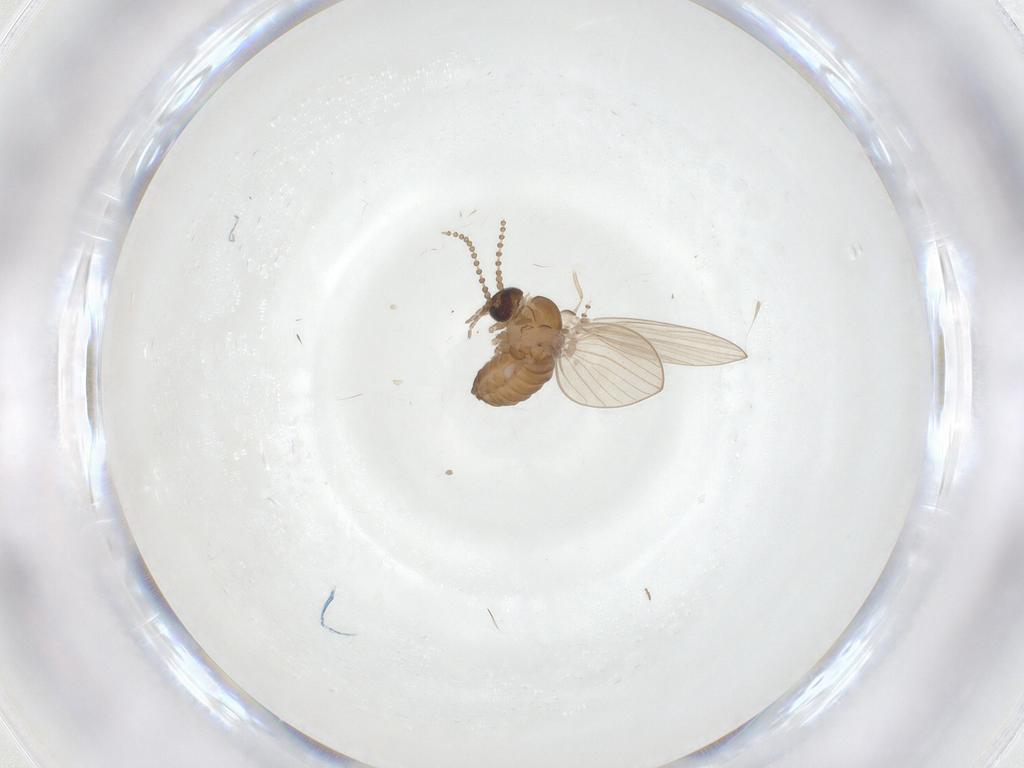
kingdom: Animalia
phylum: Arthropoda
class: Insecta
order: Diptera
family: Psychodidae
